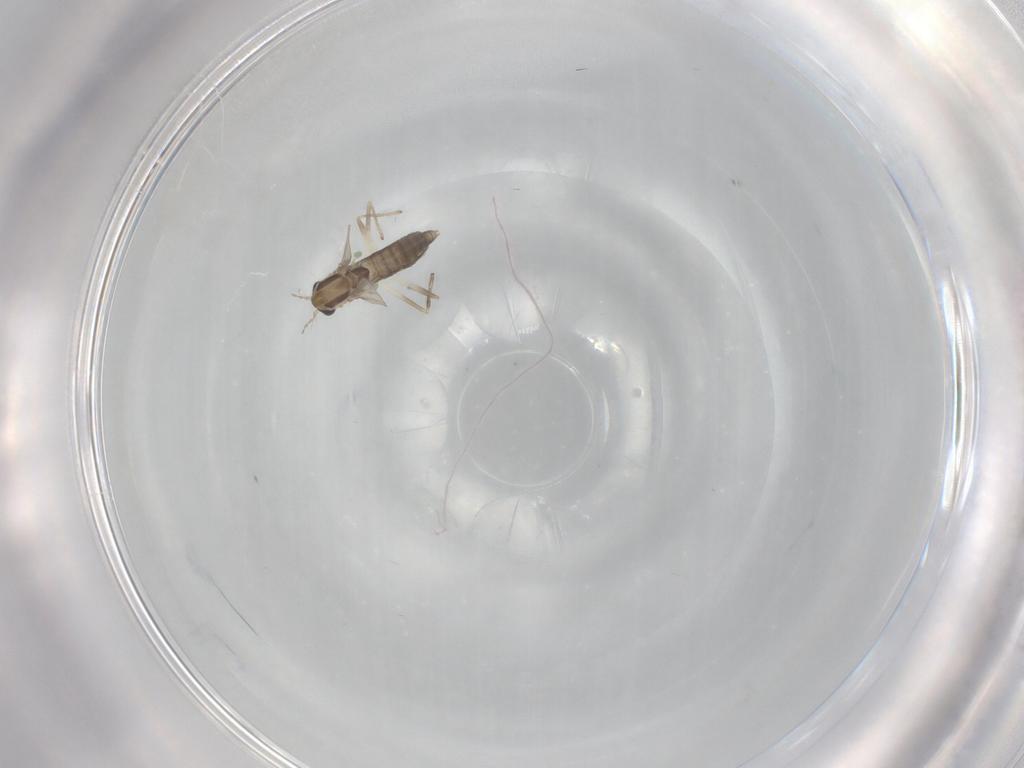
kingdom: Animalia
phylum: Arthropoda
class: Insecta
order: Diptera
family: Chironomidae
